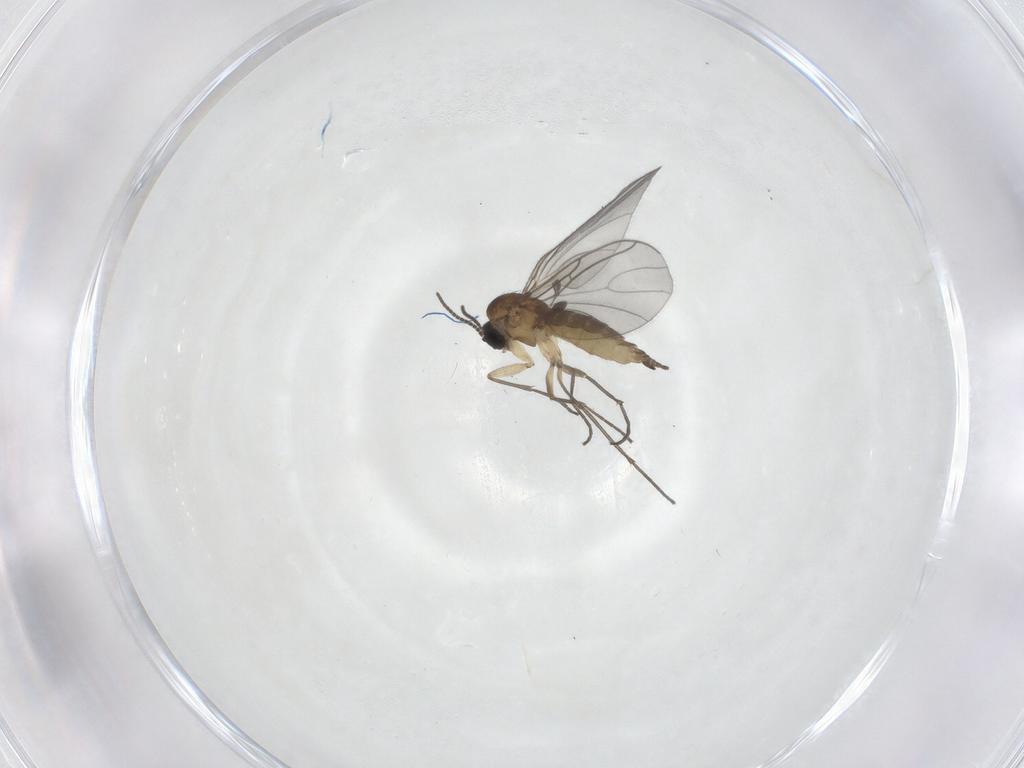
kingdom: Animalia
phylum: Arthropoda
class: Insecta
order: Diptera
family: Sciaridae
